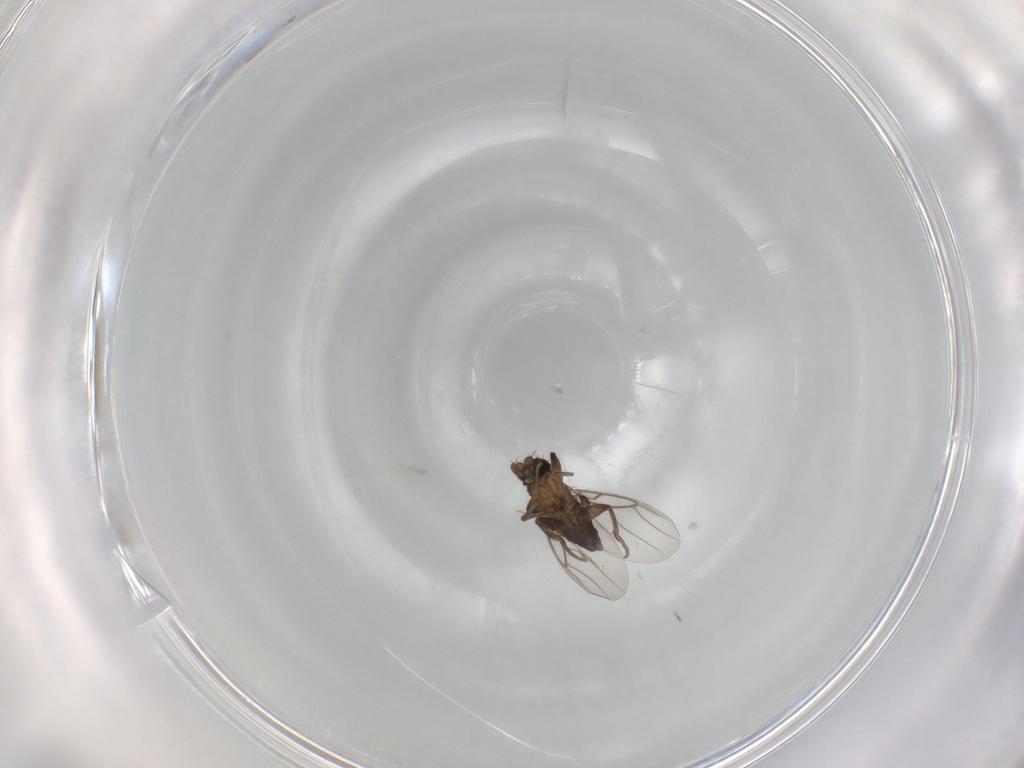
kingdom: Animalia
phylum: Arthropoda
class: Insecta
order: Diptera
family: Phoridae
